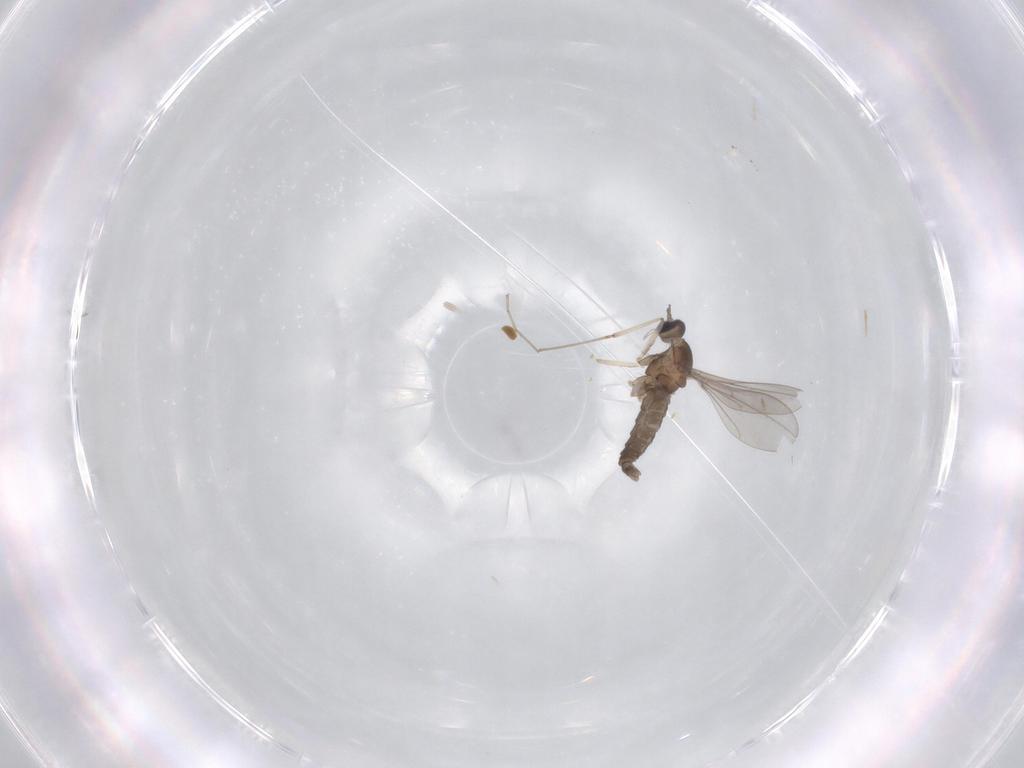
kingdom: Animalia
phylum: Arthropoda
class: Insecta
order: Diptera
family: Cecidomyiidae
